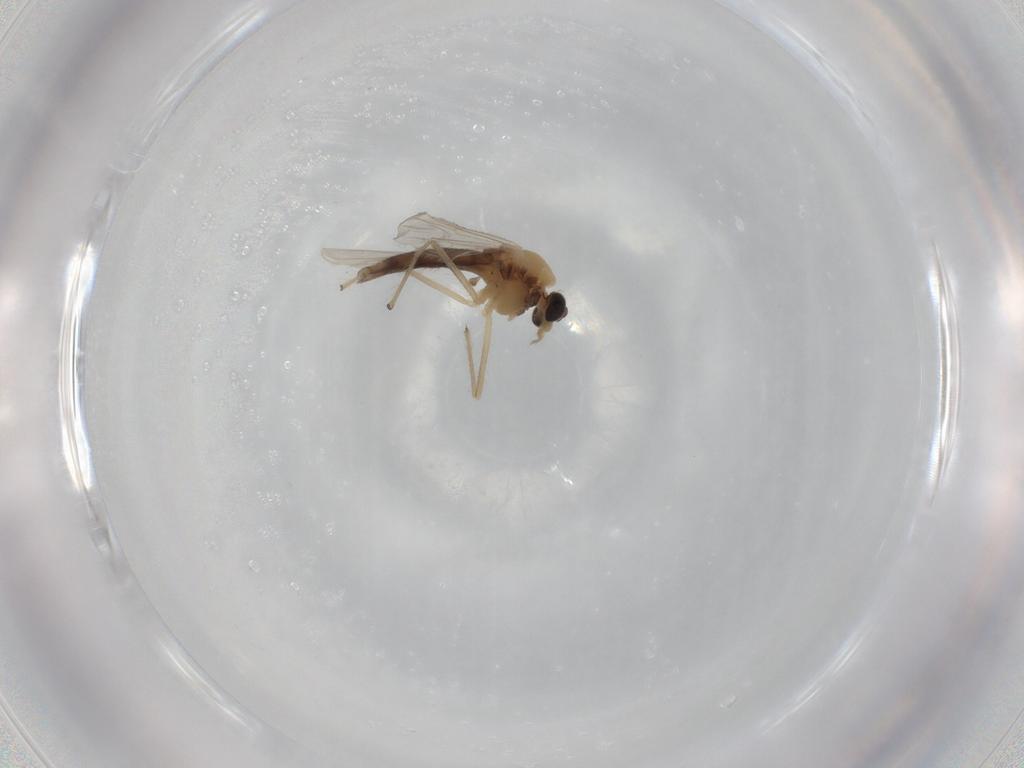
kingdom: Animalia
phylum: Arthropoda
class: Insecta
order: Diptera
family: Chironomidae
